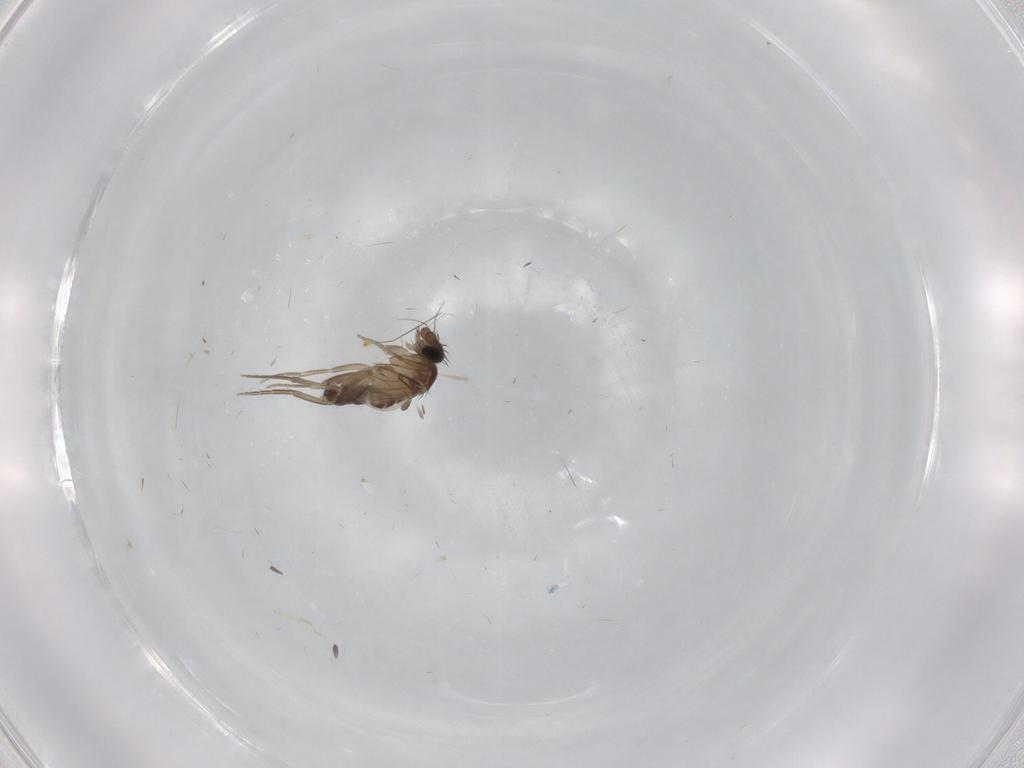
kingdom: Animalia
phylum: Arthropoda
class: Insecta
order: Diptera
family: Phoridae
